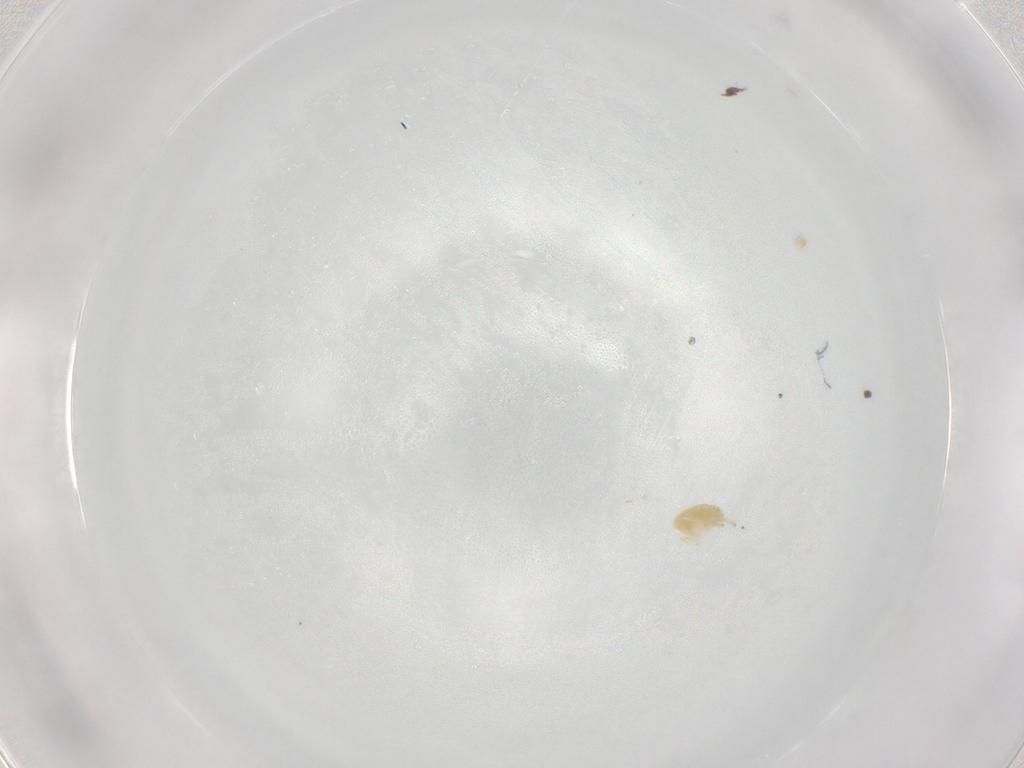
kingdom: Animalia
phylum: Arthropoda
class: Arachnida
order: Trombidiformes
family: Eupodidae
